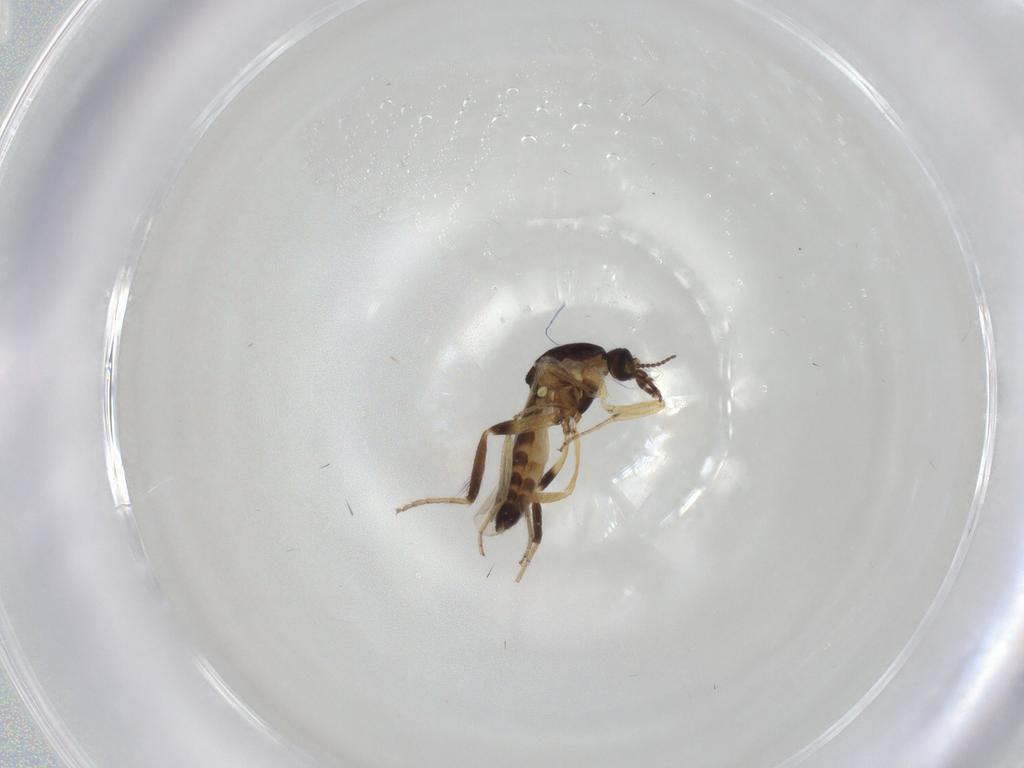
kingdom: Animalia
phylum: Arthropoda
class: Insecta
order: Diptera
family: Ceratopogonidae
